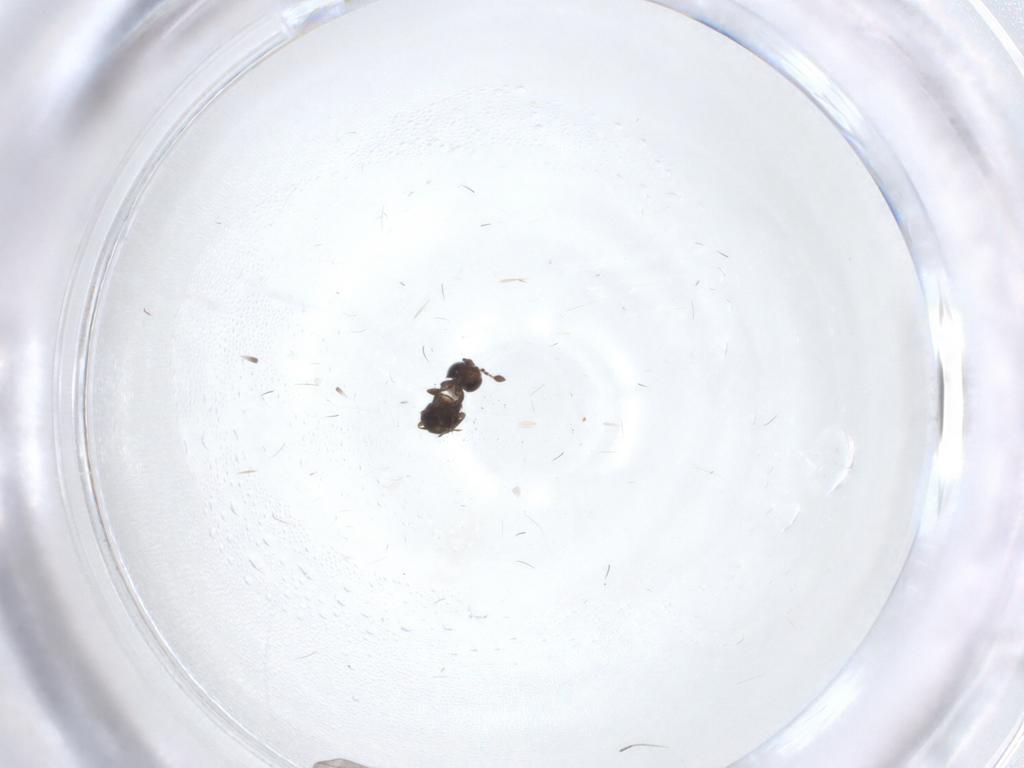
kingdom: Animalia
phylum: Arthropoda
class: Insecta
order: Hymenoptera
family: Scelionidae
